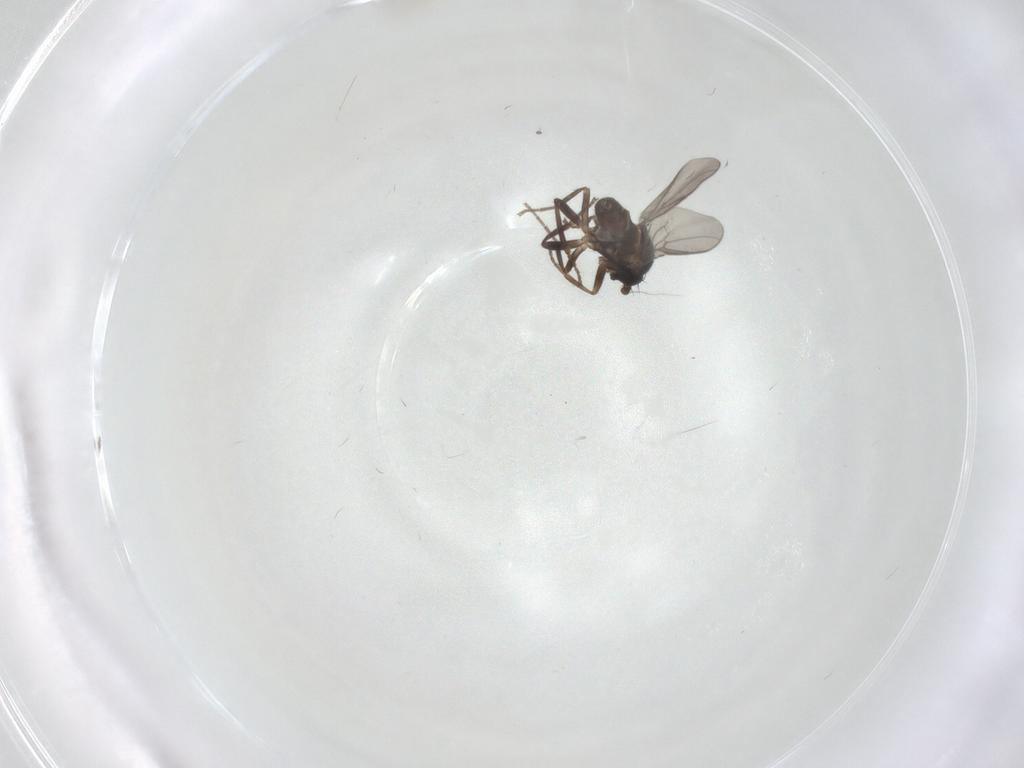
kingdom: Animalia
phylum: Arthropoda
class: Insecta
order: Diptera
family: Psychodidae
